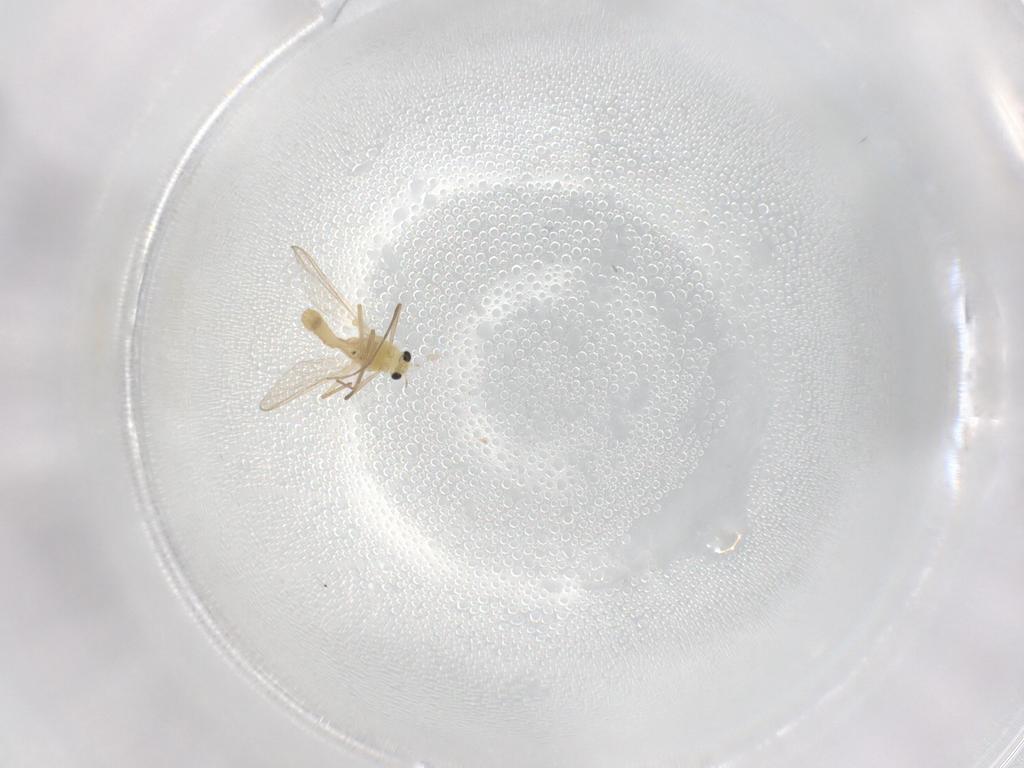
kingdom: Animalia
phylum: Arthropoda
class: Insecta
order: Diptera
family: Chironomidae
